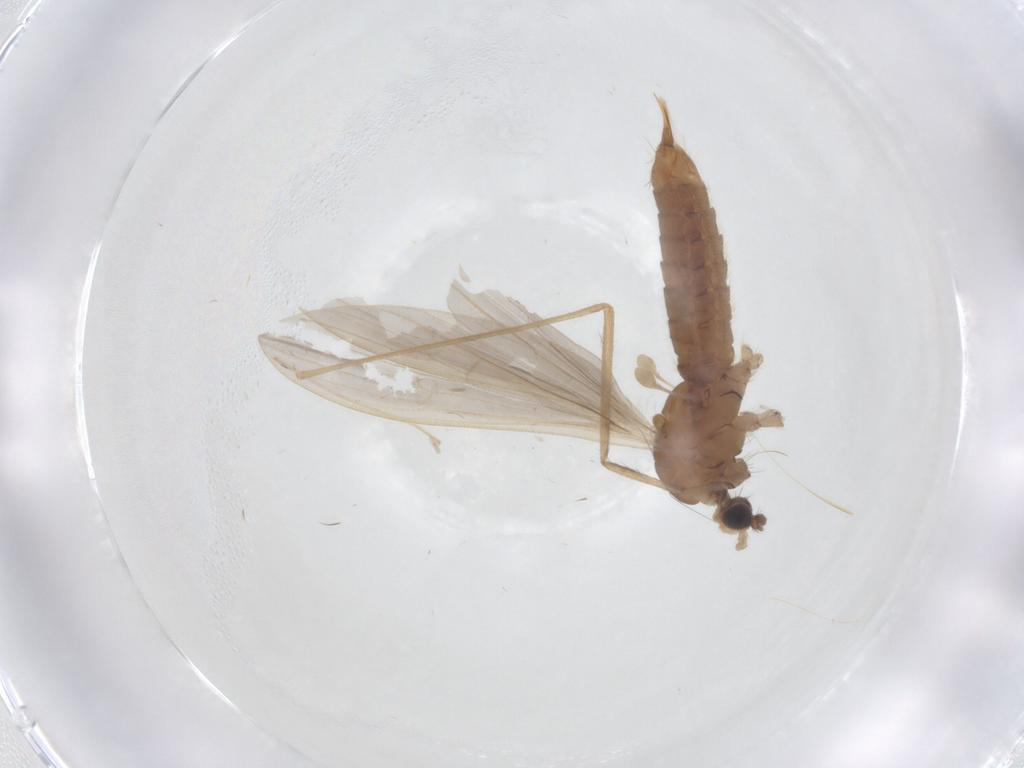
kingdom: Animalia
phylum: Arthropoda
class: Insecta
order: Diptera
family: Limoniidae
